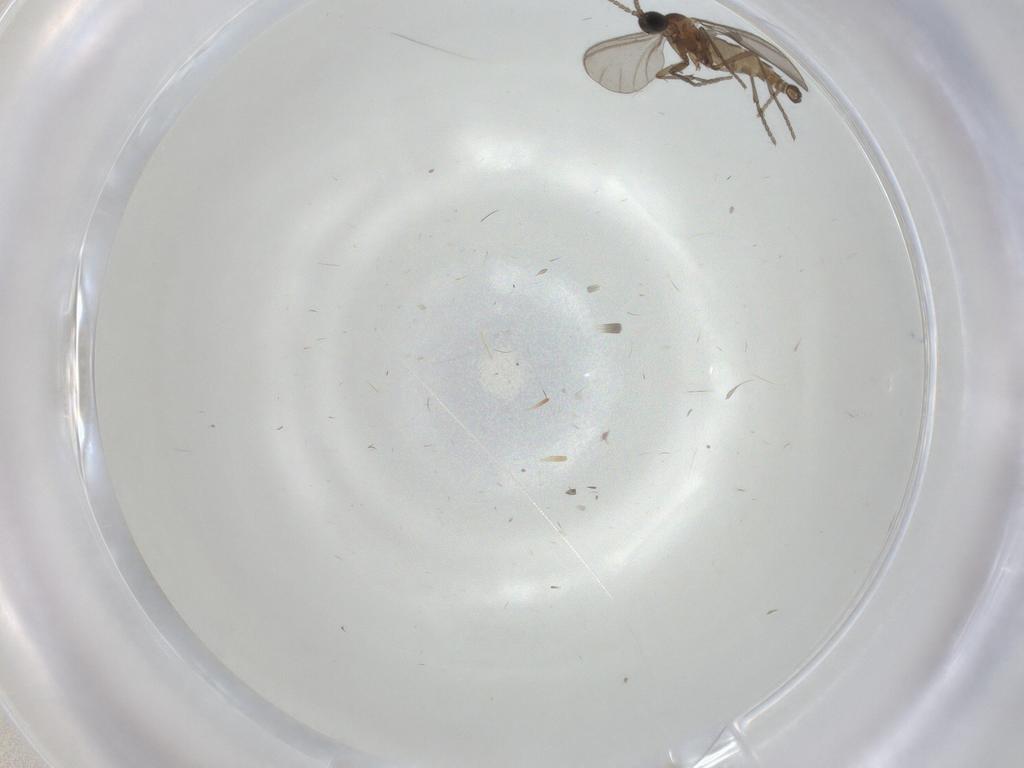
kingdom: Animalia
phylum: Arthropoda
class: Insecta
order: Diptera
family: Sciaridae
